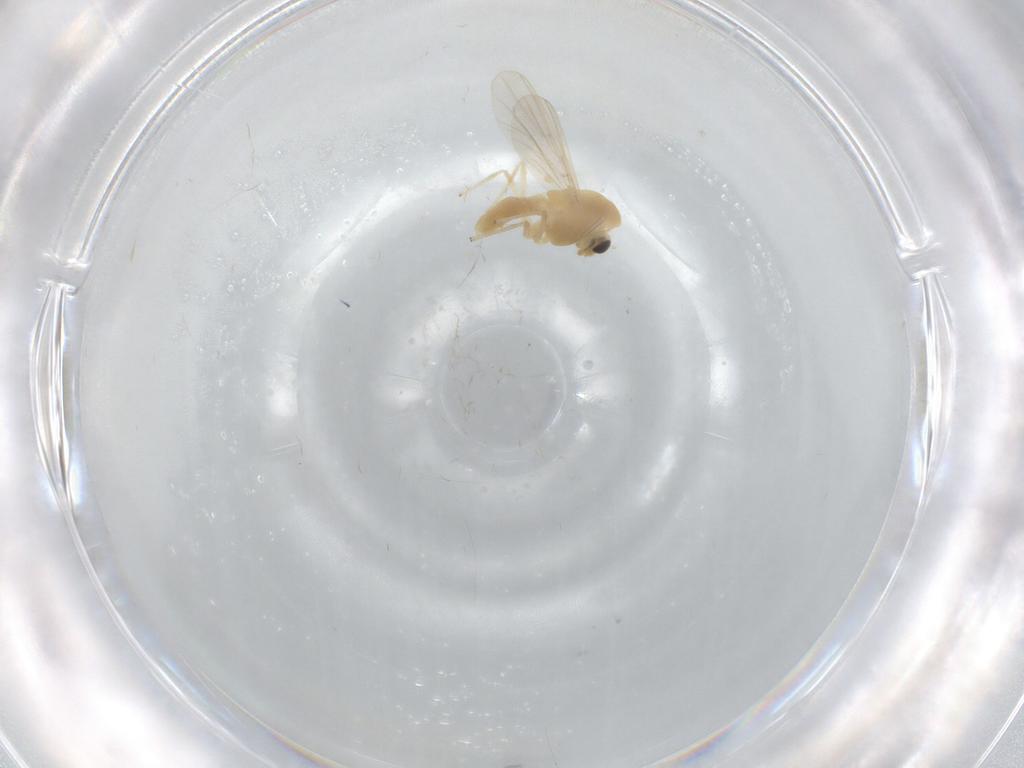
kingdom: Animalia
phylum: Arthropoda
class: Insecta
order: Diptera
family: Chironomidae
